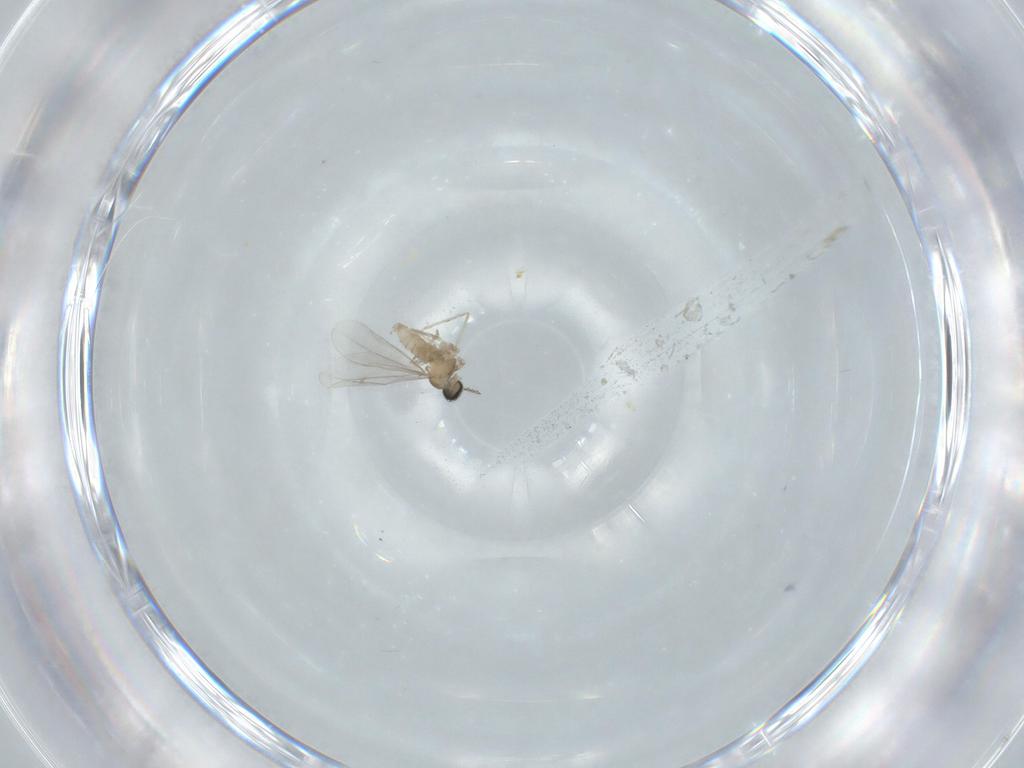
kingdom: Animalia
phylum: Arthropoda
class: Insecta
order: Diptera
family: Cecidomyiidae
